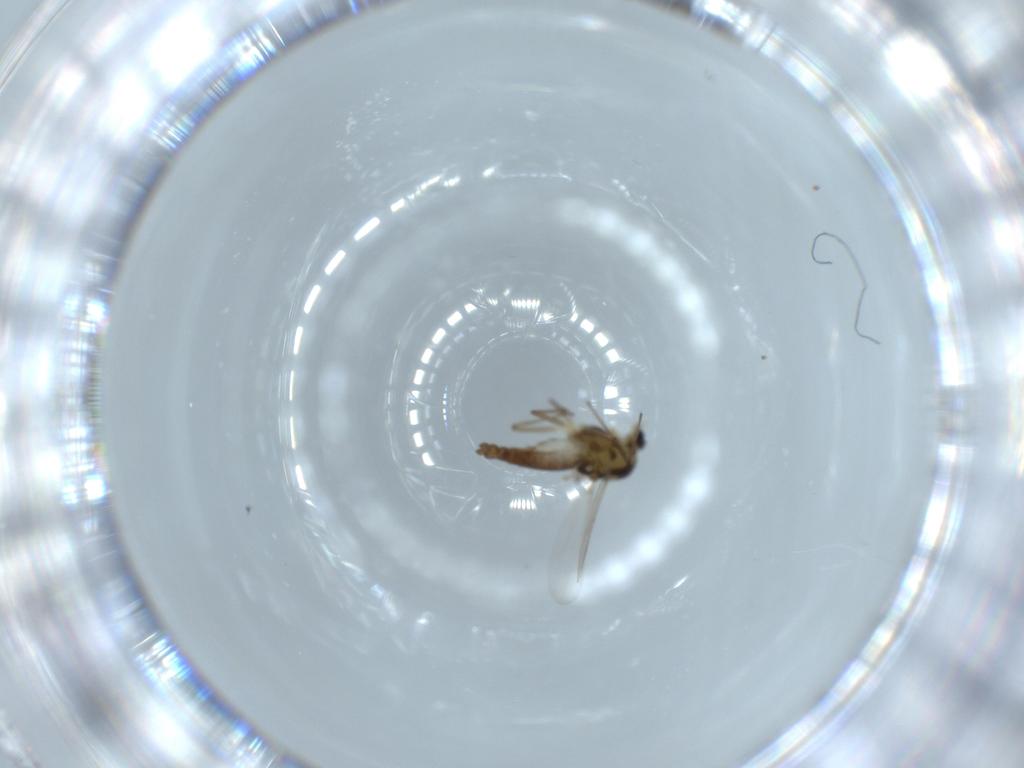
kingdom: Animalia
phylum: Arthropoda
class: Insecta
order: Diptera
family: Chironomidae
